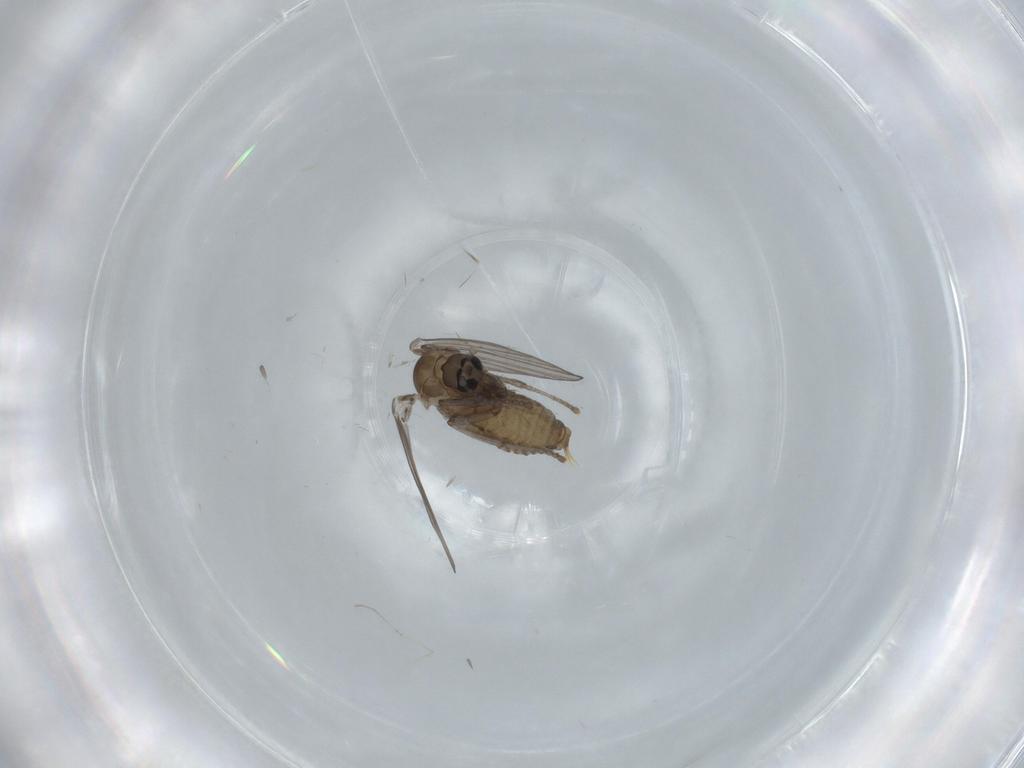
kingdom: Animalia
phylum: Arthropoda
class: Insecta
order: Diptera
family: Psychodidae
